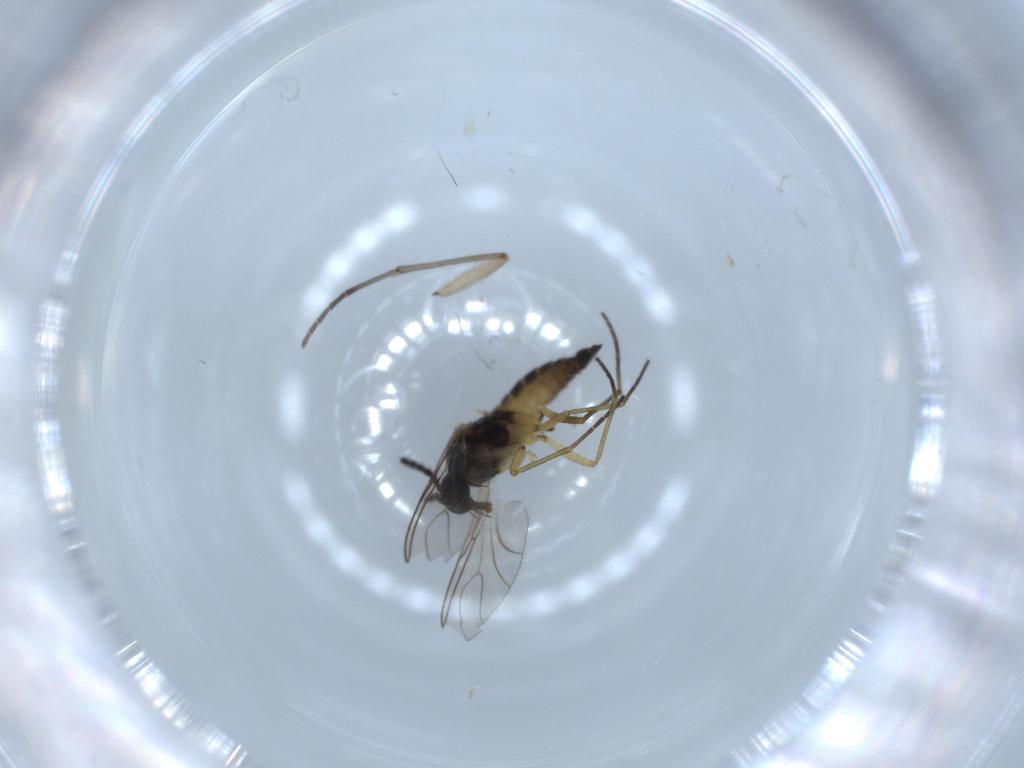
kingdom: Animalia
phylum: Arthropoda
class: Insecta
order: Diptera
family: Sciaridae
